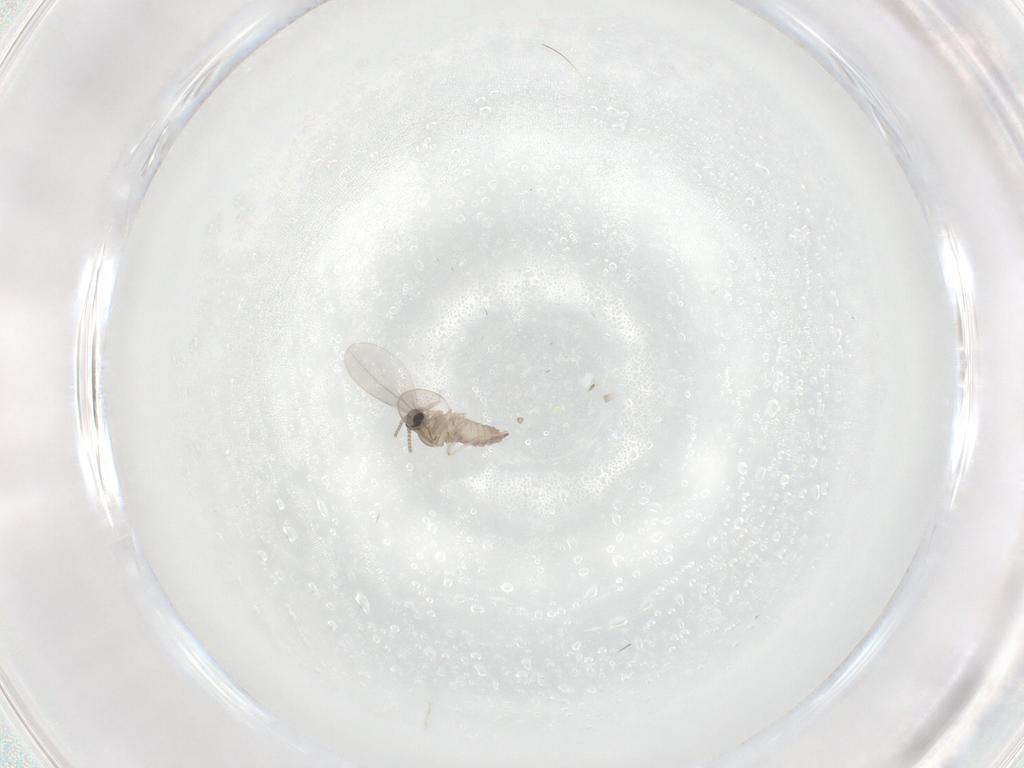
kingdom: Animalia
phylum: Arthropoda
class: Insecta
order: Diptera
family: Cecidomyiidae
